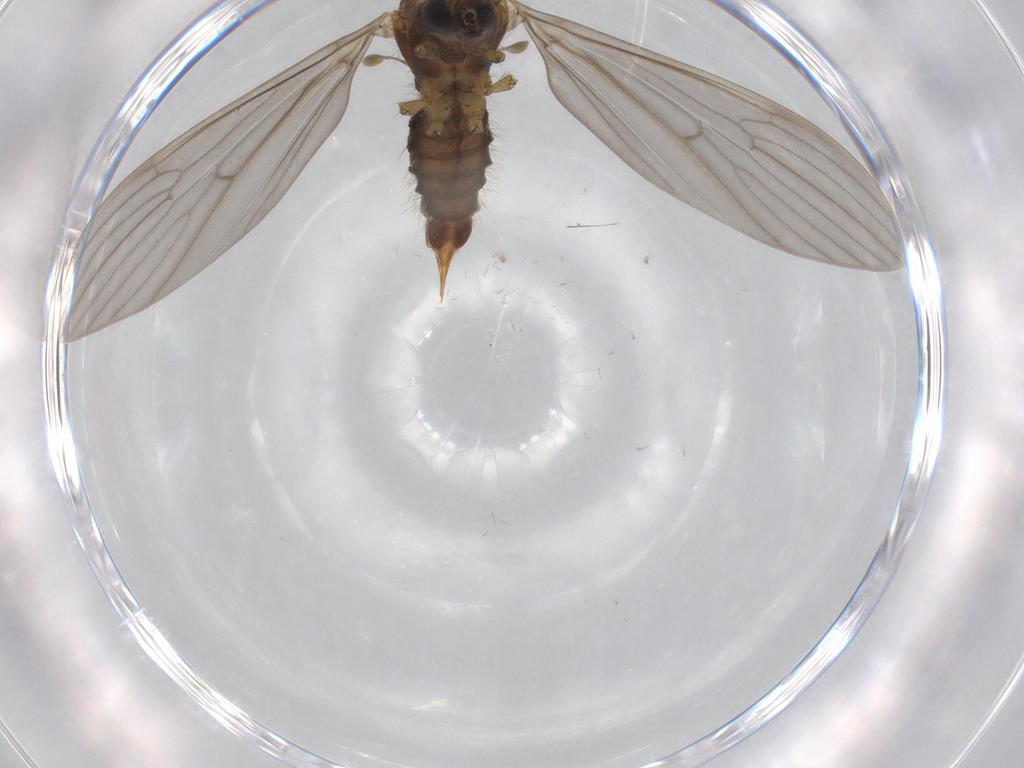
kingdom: Animalia
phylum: Arthropoda
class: Insecta
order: Diptera
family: Limoniidae
